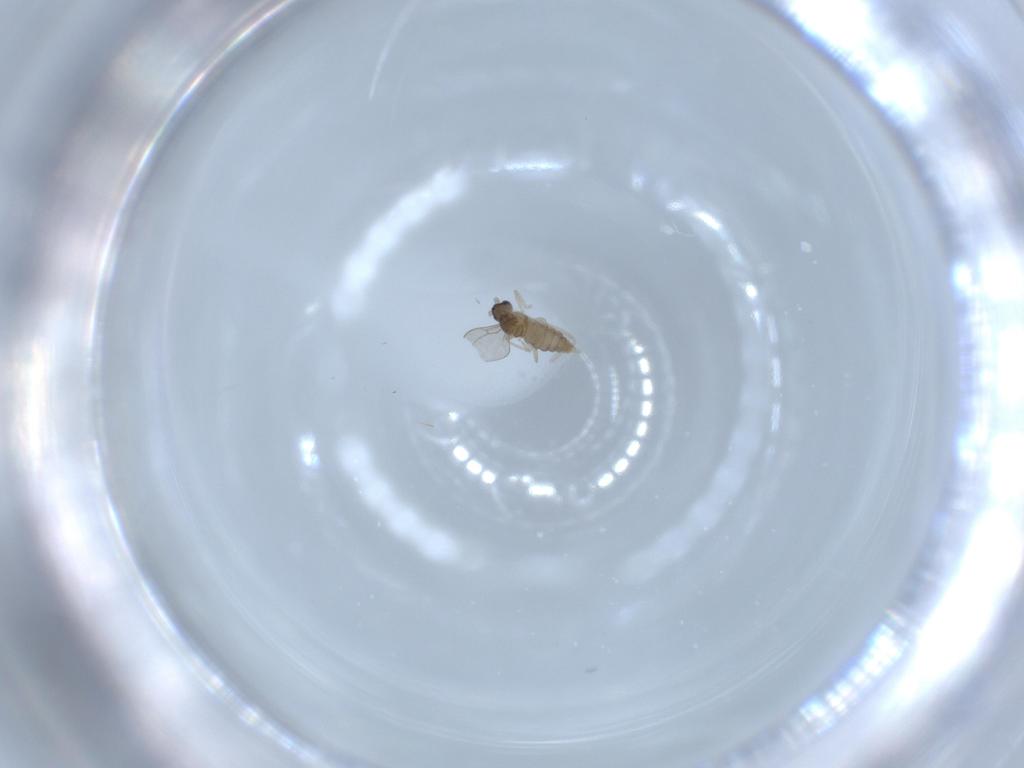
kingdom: Animalia
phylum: Arthropoda
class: Insecta
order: Diptera
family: Cecidomyiidae
